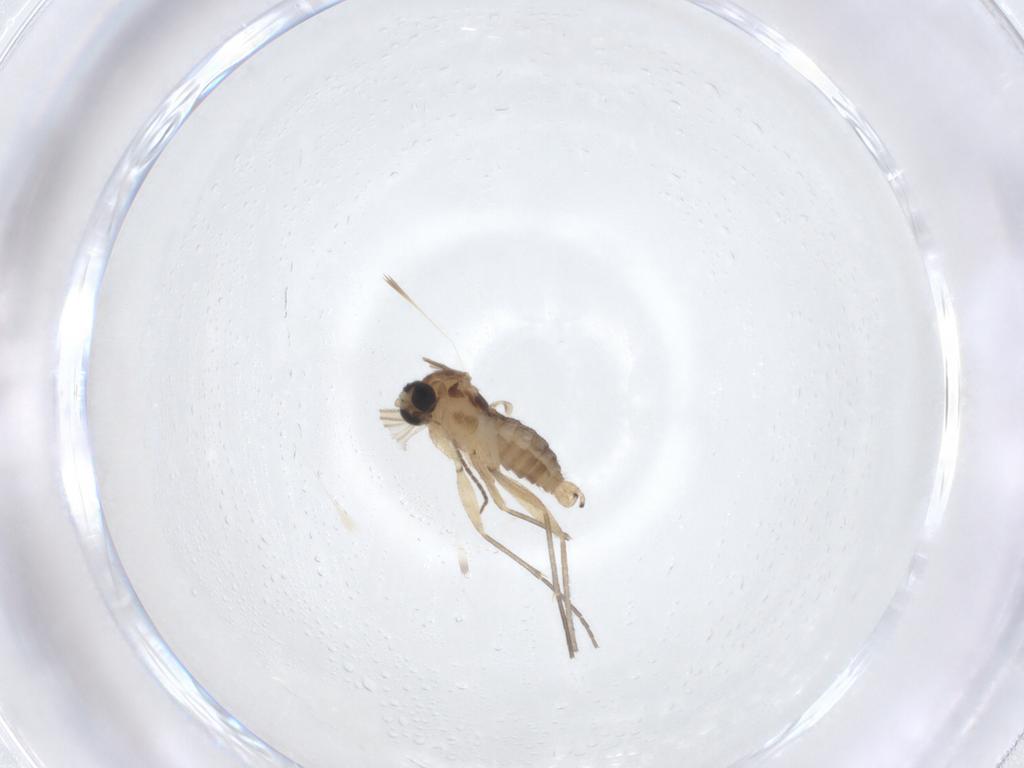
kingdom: Animalia
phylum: Arthropoda
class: Insecta
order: Diptera
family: Sciaridae
